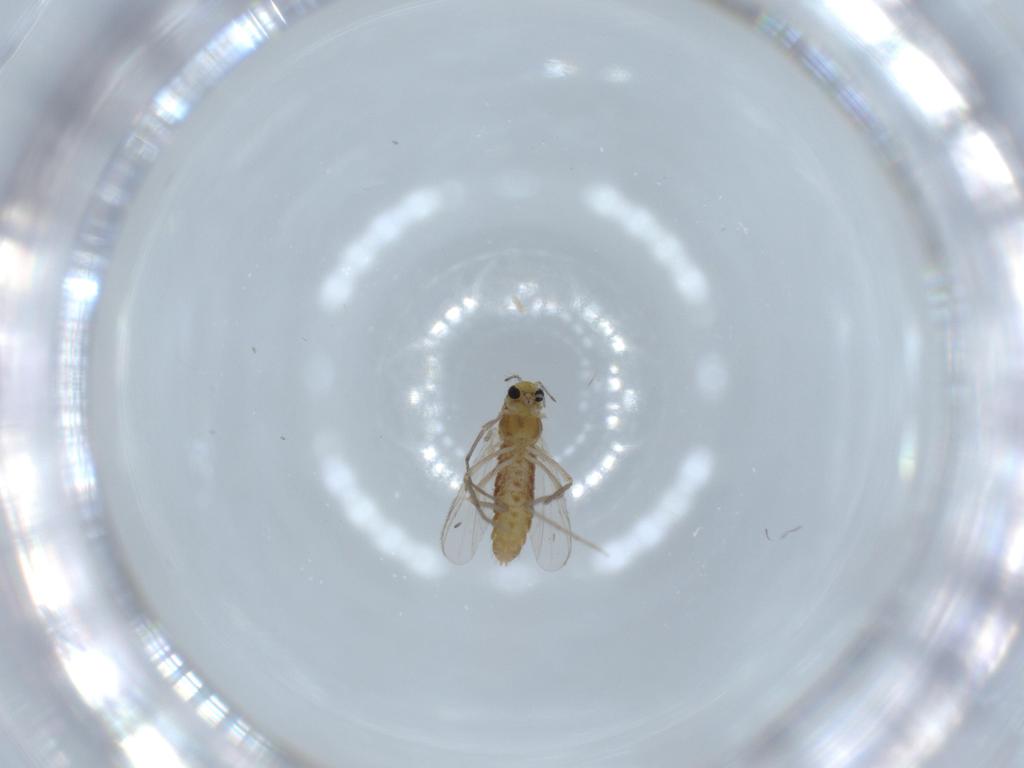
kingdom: Animalia
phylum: Arthropoda
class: Insecta
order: Diptera
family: Chironomidae
